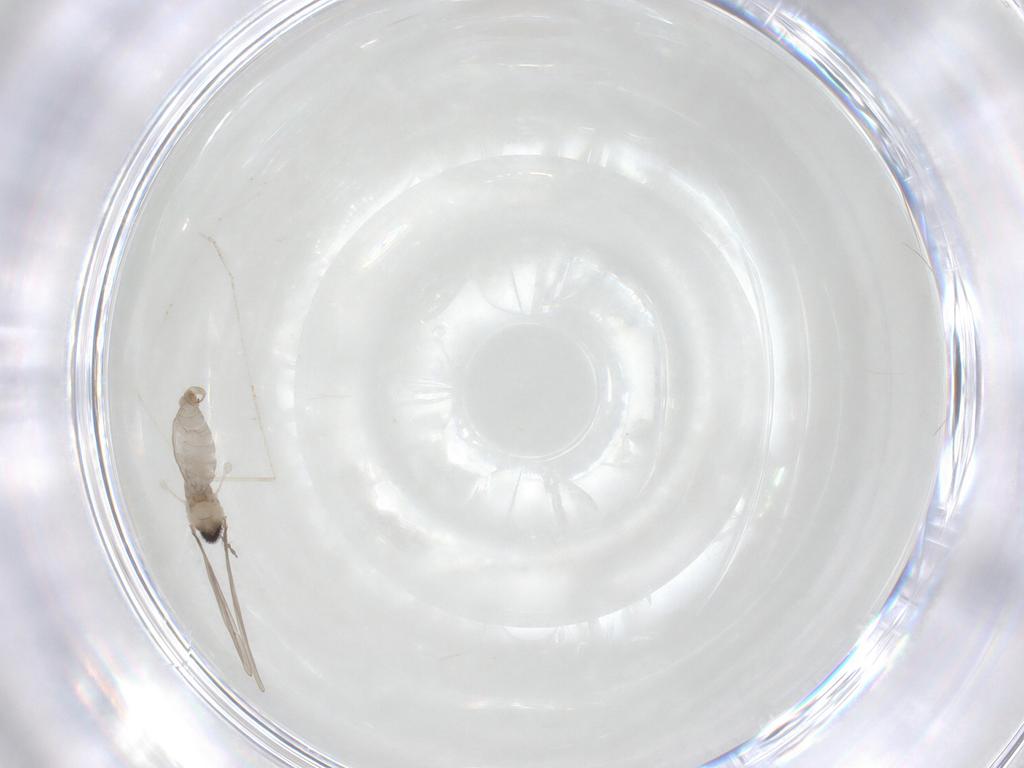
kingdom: Animalia
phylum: Arthropoda
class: Insecta
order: Diptera
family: Cecidomyiidae
